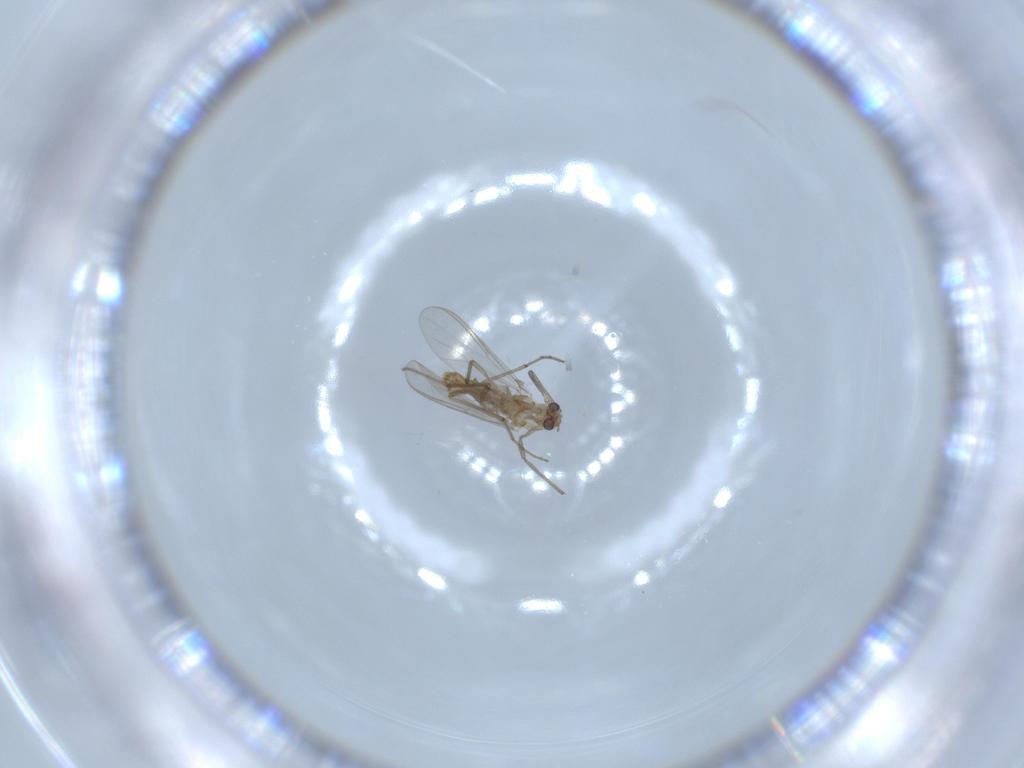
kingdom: Animalia
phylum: Arthropoda
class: Insecta
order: Diptera
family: Chironomidae
